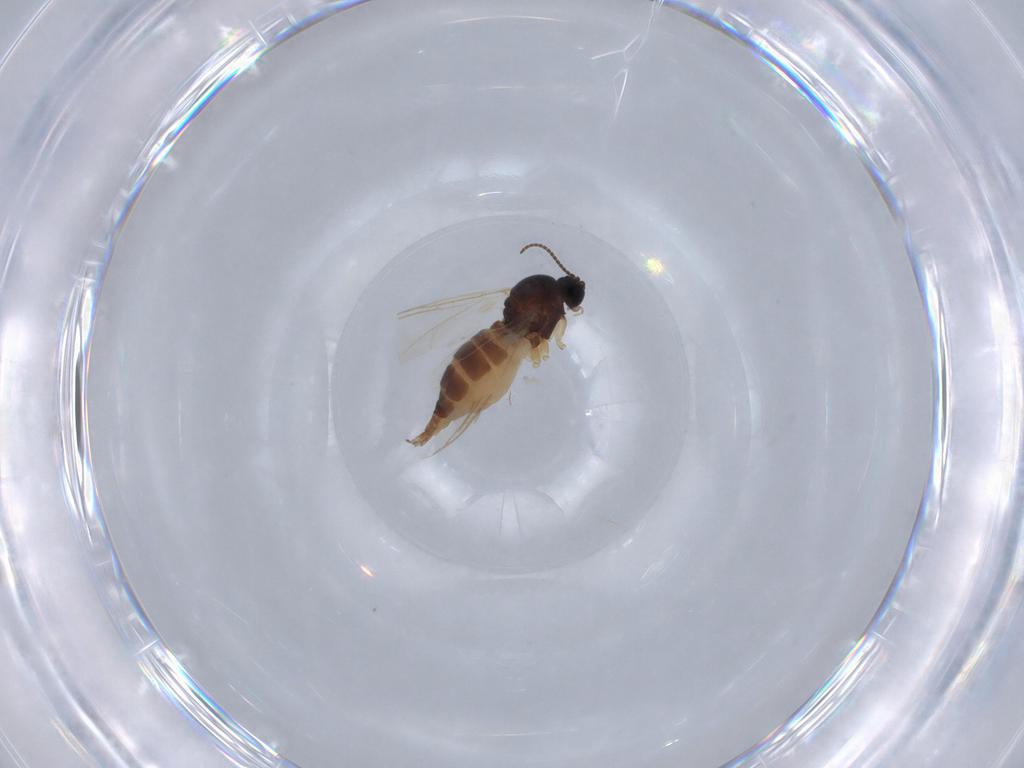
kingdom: Animalia
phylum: Arthropoda
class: Insecta
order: Diptera
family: Sciaridae
